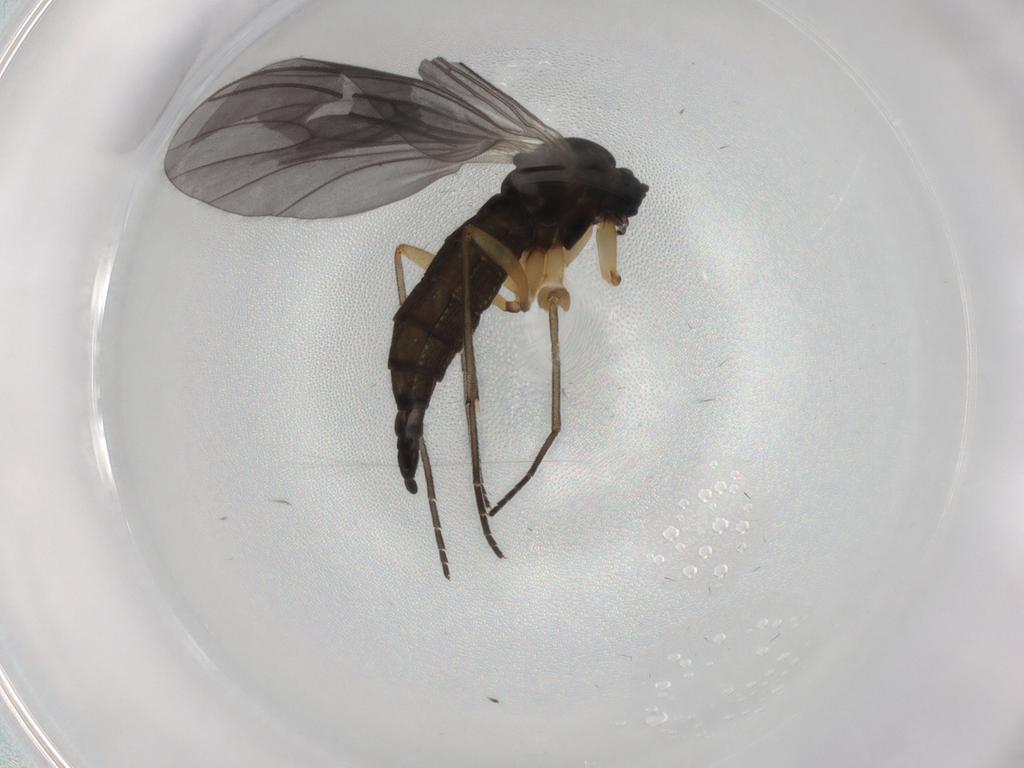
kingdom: Animalia
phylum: Arthropoda
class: Insecta
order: Diptera
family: Sciaridae
